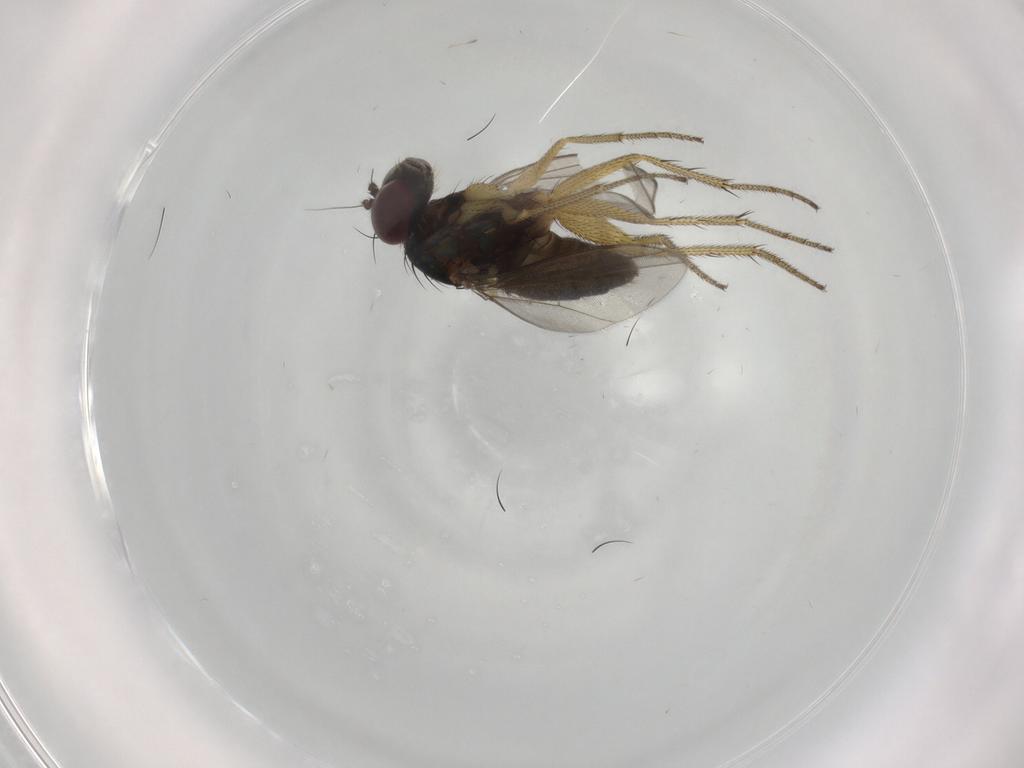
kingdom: Animalia
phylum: Arthropoda
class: Insecta
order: Diptera
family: Dolichopodidae
